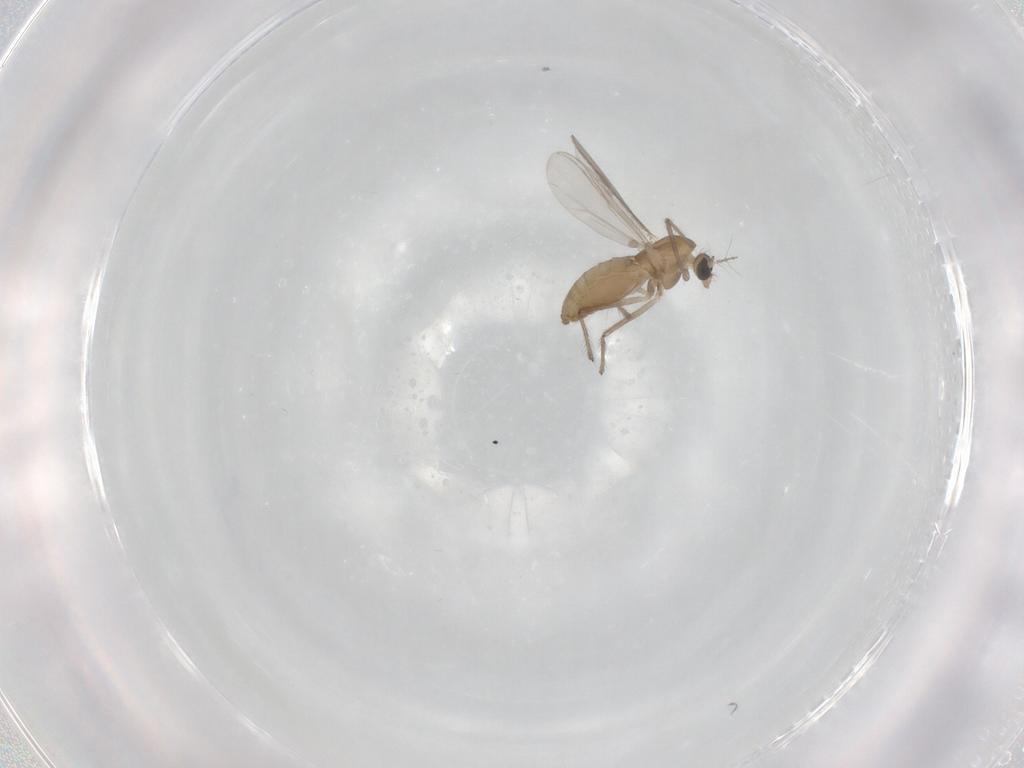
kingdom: Animalia
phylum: Arthropoda
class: Insecta
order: Diptera
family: Chironomidae
